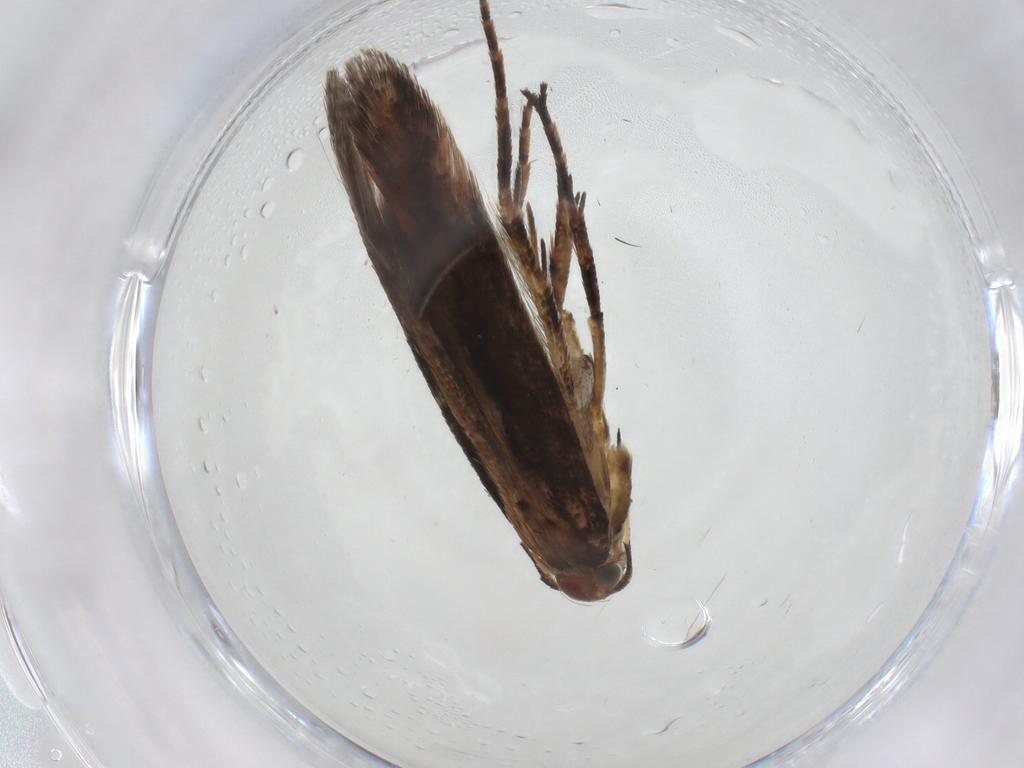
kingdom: Animalia
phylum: Arthropoda
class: Insecta
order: Lepidoptera
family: Gelechiidae
